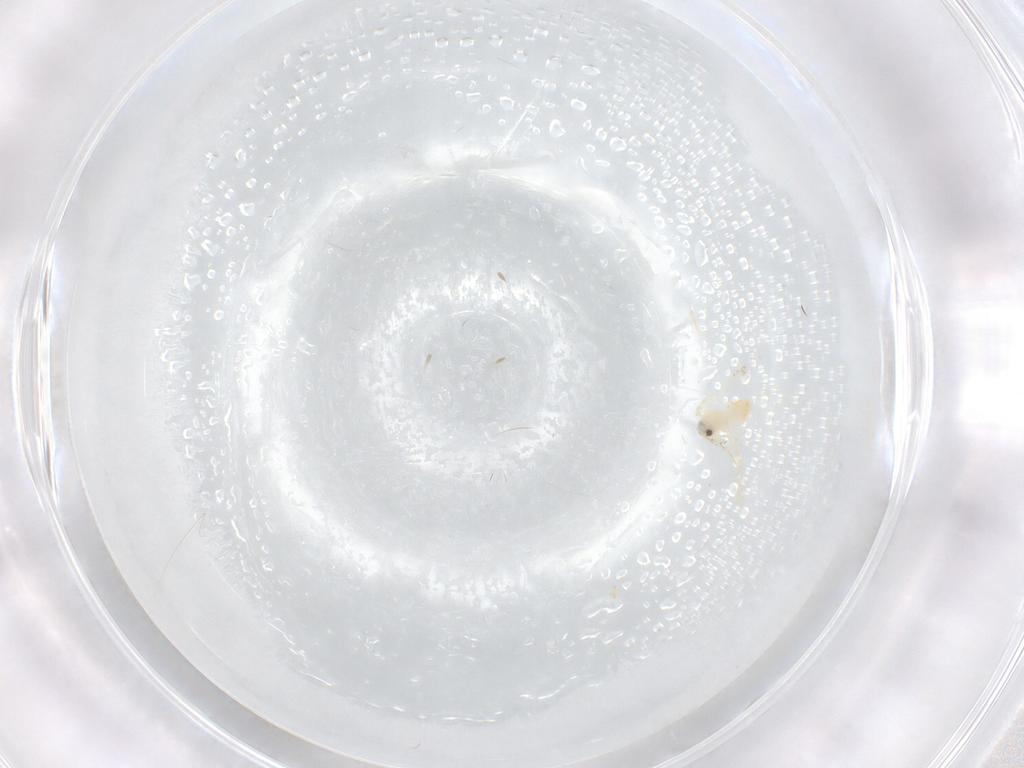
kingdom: Animalia
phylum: Arthropoda
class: Insecta
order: Hemiptera
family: Aleyrodidae
